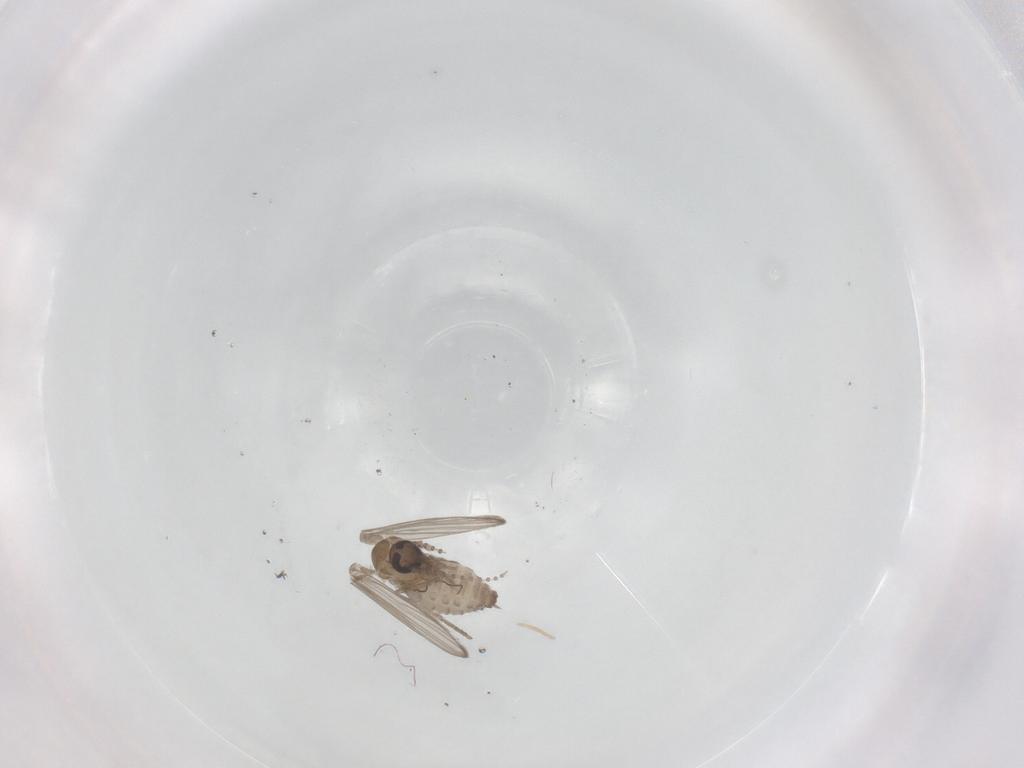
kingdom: Animalia
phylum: Arthropoda
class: Insecta
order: Diptera
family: Psychodidae
